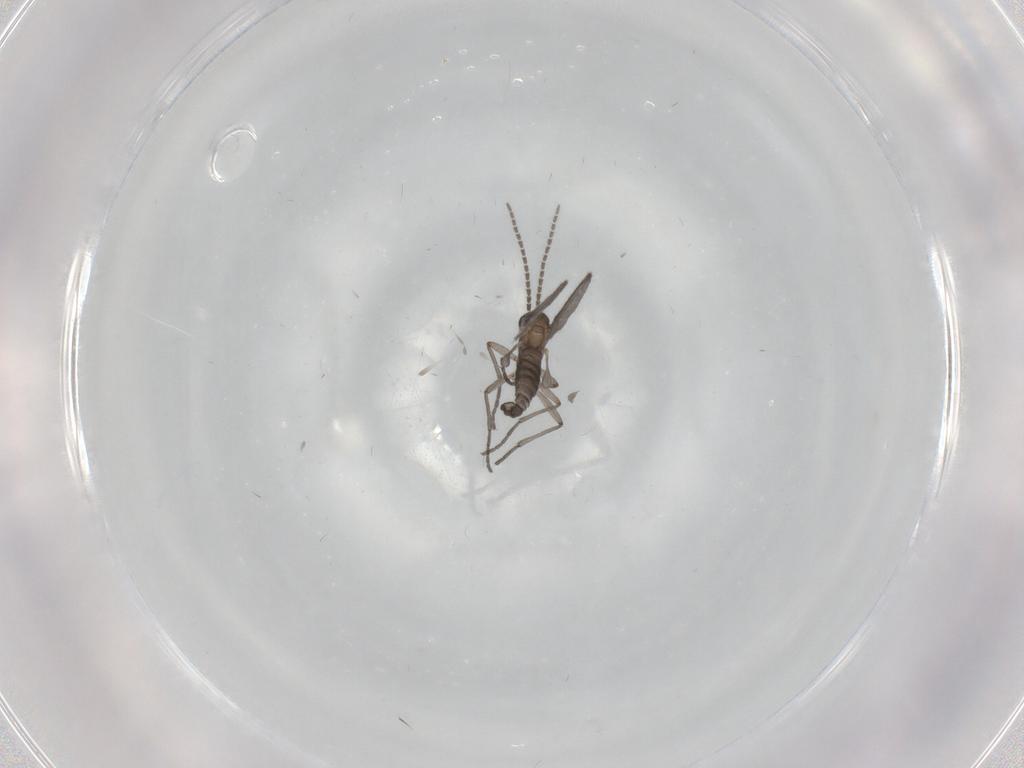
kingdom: Animalia
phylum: Arthropoda
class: Insecta
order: Diptera
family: Sciaridae
